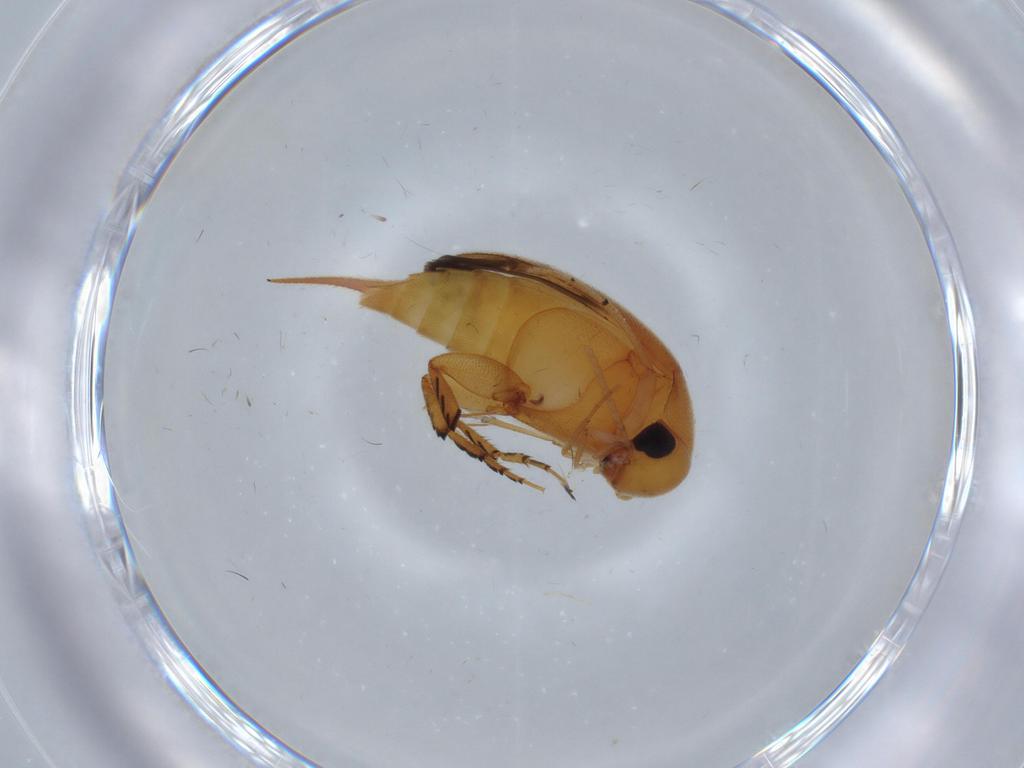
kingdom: Animalia
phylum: Arthropoda
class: Insecta
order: Coleoptera
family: Mordellidae
